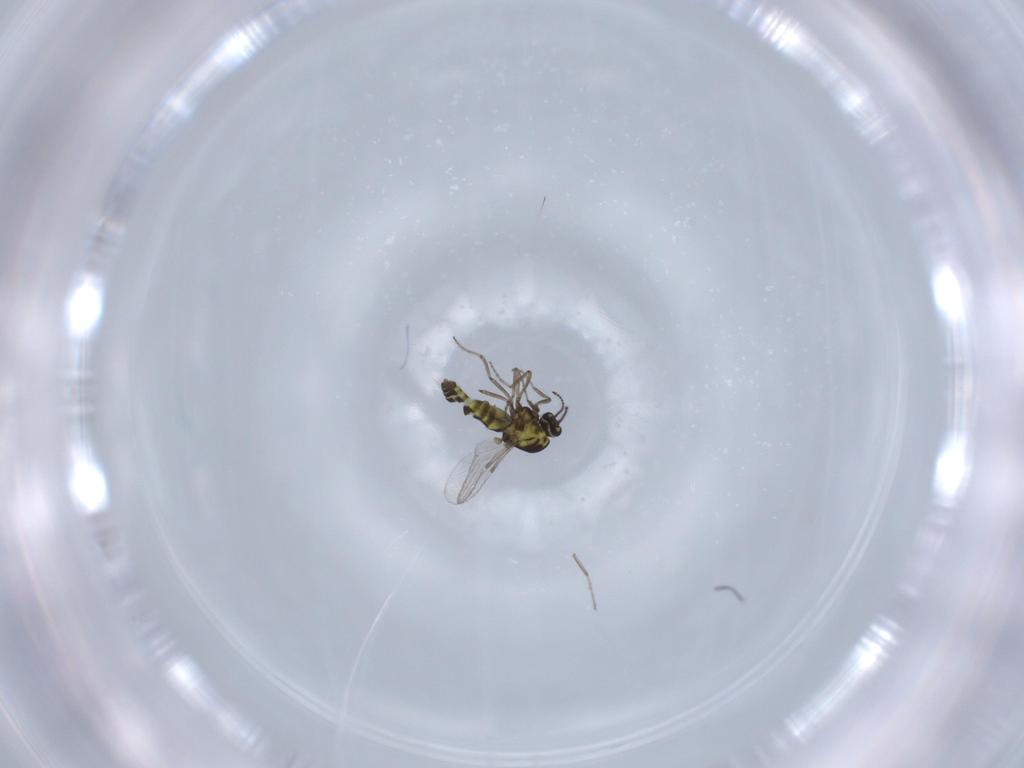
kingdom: Animalia
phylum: Arthropoda
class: Insecta
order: Diptera
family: Ceratopogonidae
